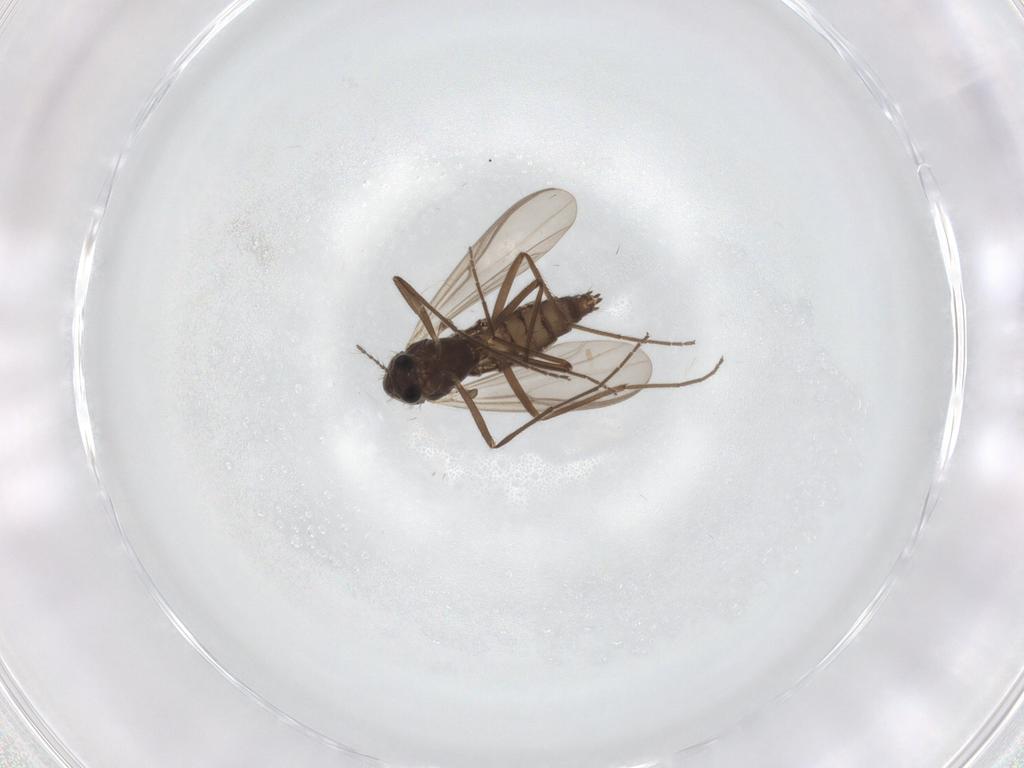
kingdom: Animalia
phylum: Arthropoda
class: Insecta
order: Diptera
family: Chironomidae
